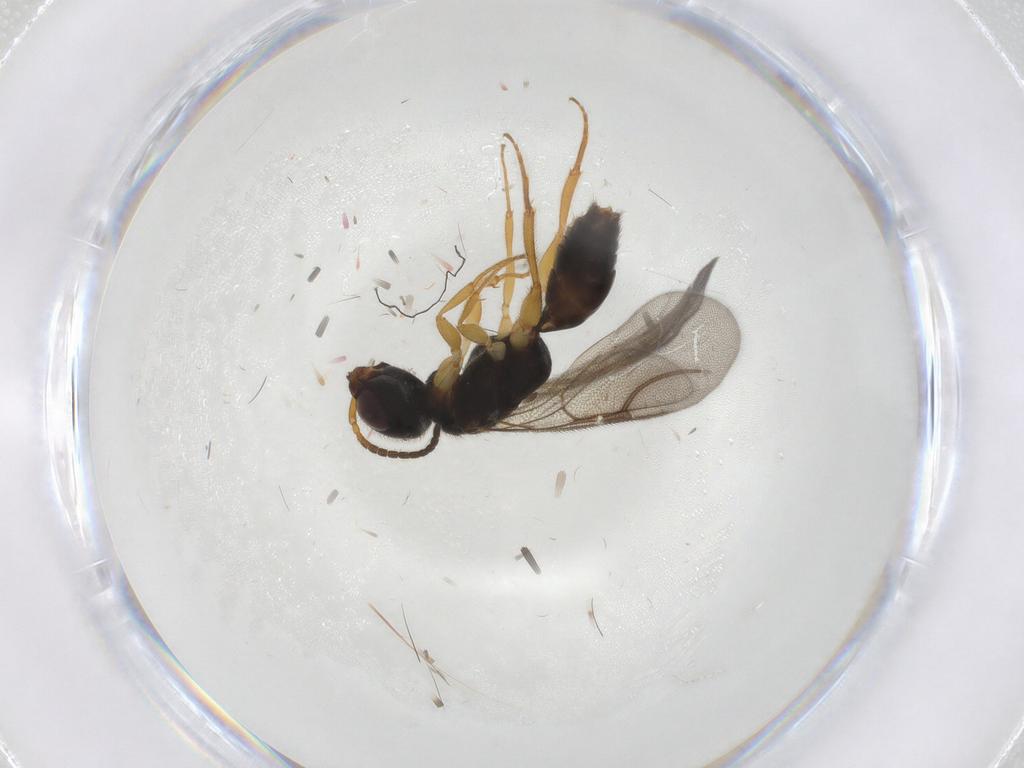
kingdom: Animalia
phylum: Arthropoda
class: Insecta
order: Hymenoptera
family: Bethylidae
